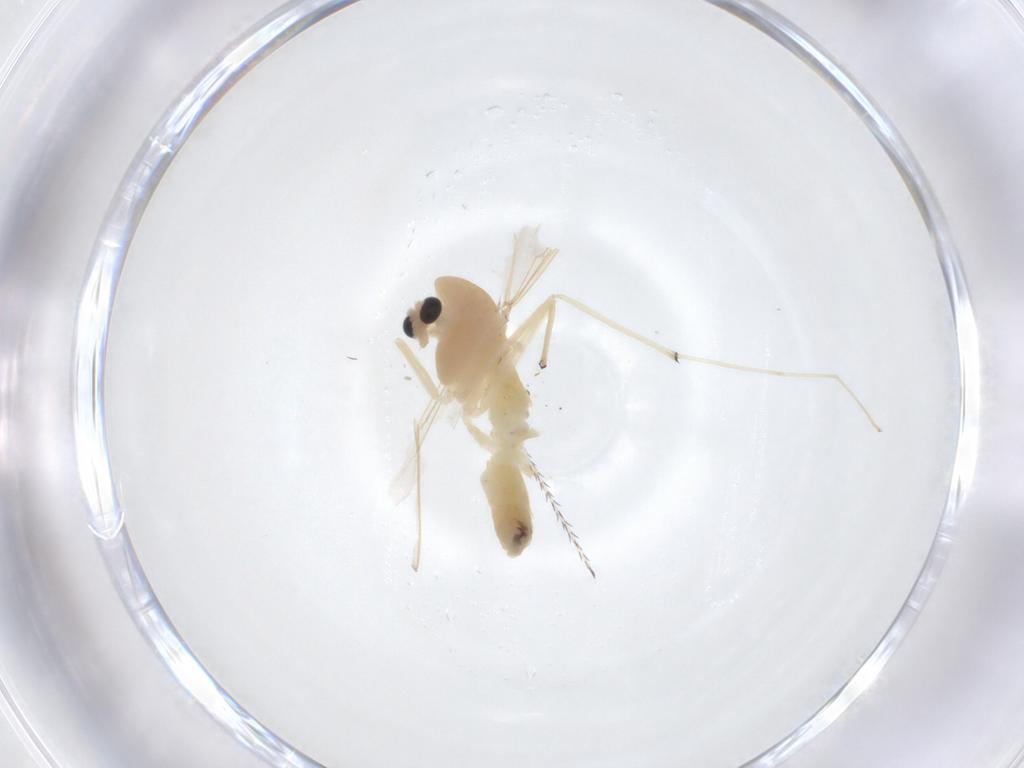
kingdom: Animalia
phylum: Arthropoda
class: Insecta
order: Diptera
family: Chironomidae
